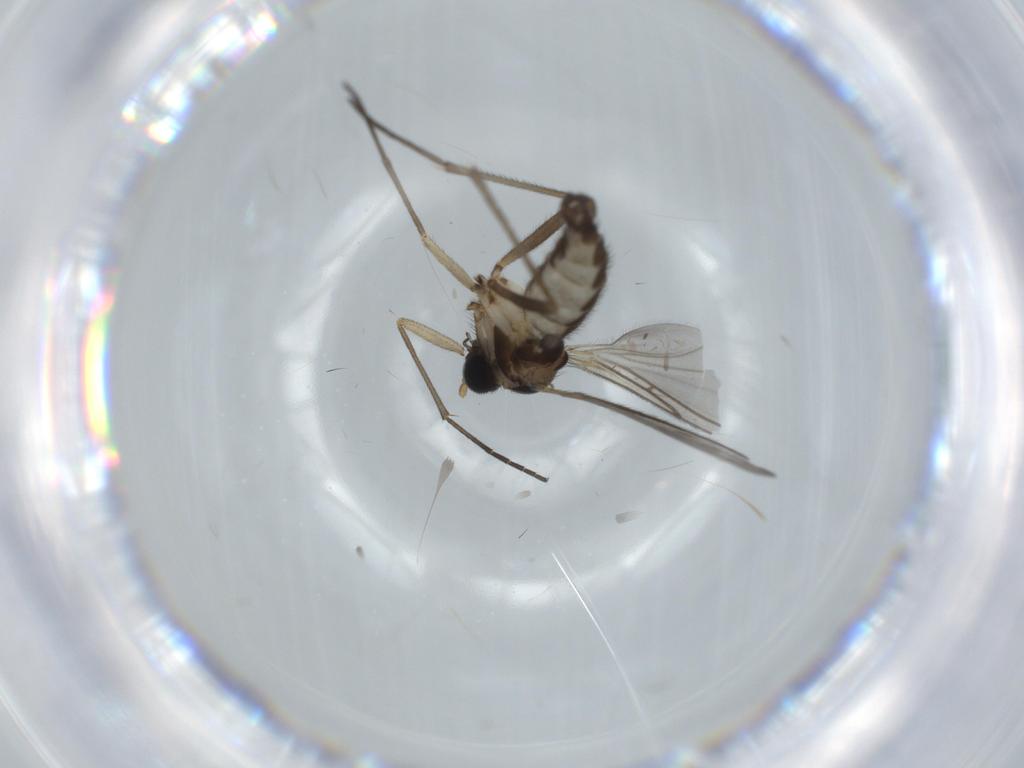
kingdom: Animalia
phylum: Arthropoda
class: Insecta
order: Diptera
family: Sciaridae
